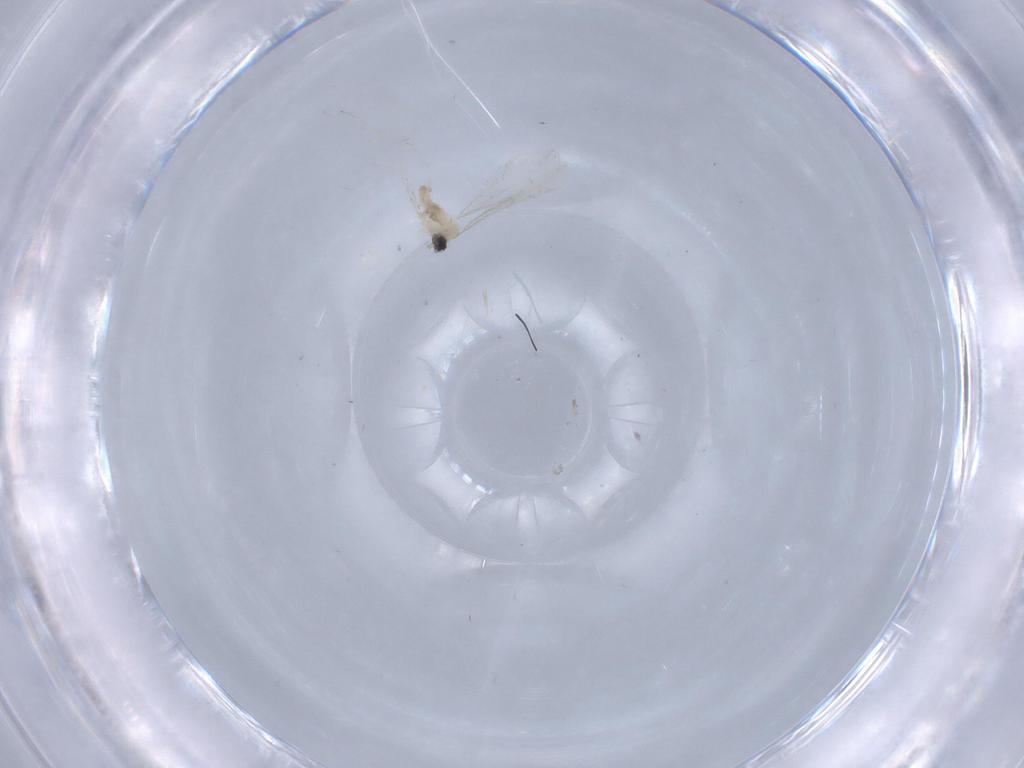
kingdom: Animalia
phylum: Arthropoda
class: Insecta
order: Diptera
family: Cecidomyiidae
